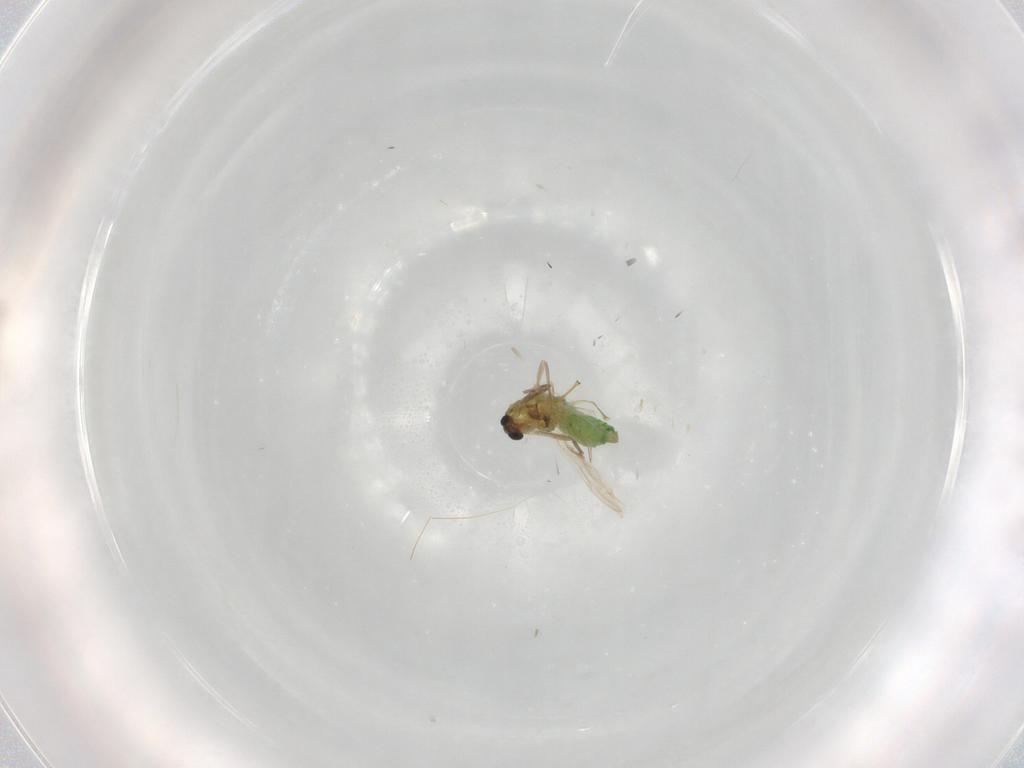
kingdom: Animalia
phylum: Arthropoda
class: Insecta
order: Diptera
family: Chironomidae
